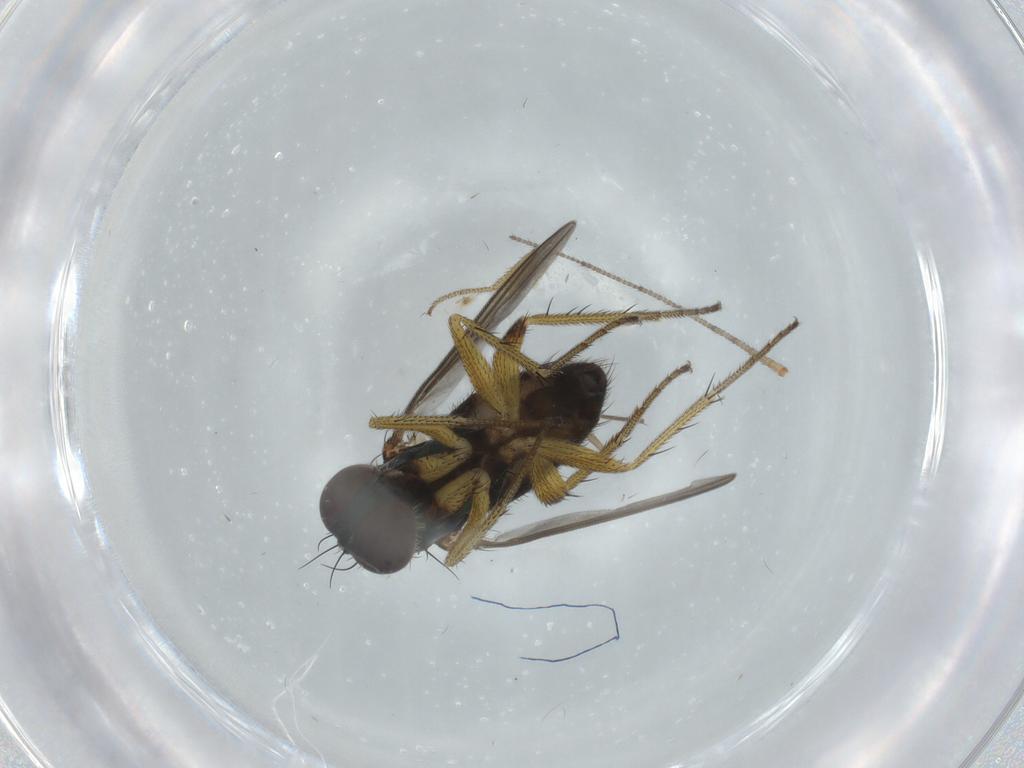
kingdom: Animalia
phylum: Arthropoda
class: Insecta
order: Diptera
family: Dolichopodidae
